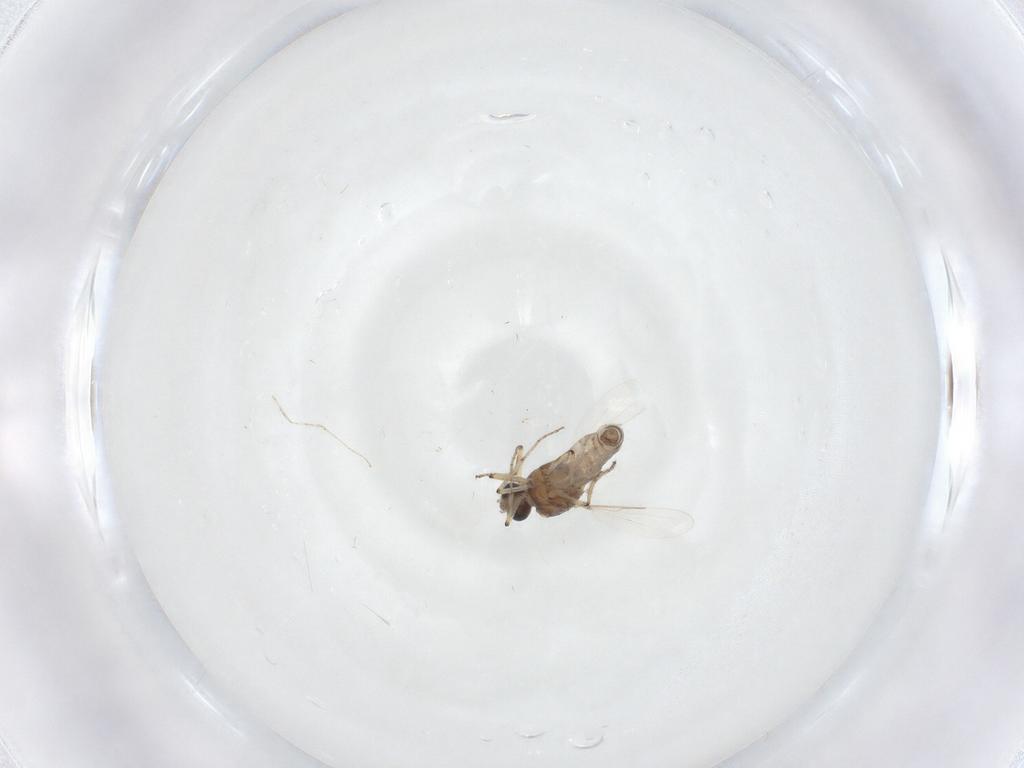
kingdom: Animalia
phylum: Arthropoda
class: Insecta
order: Diptera
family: Ceratopogonidae
